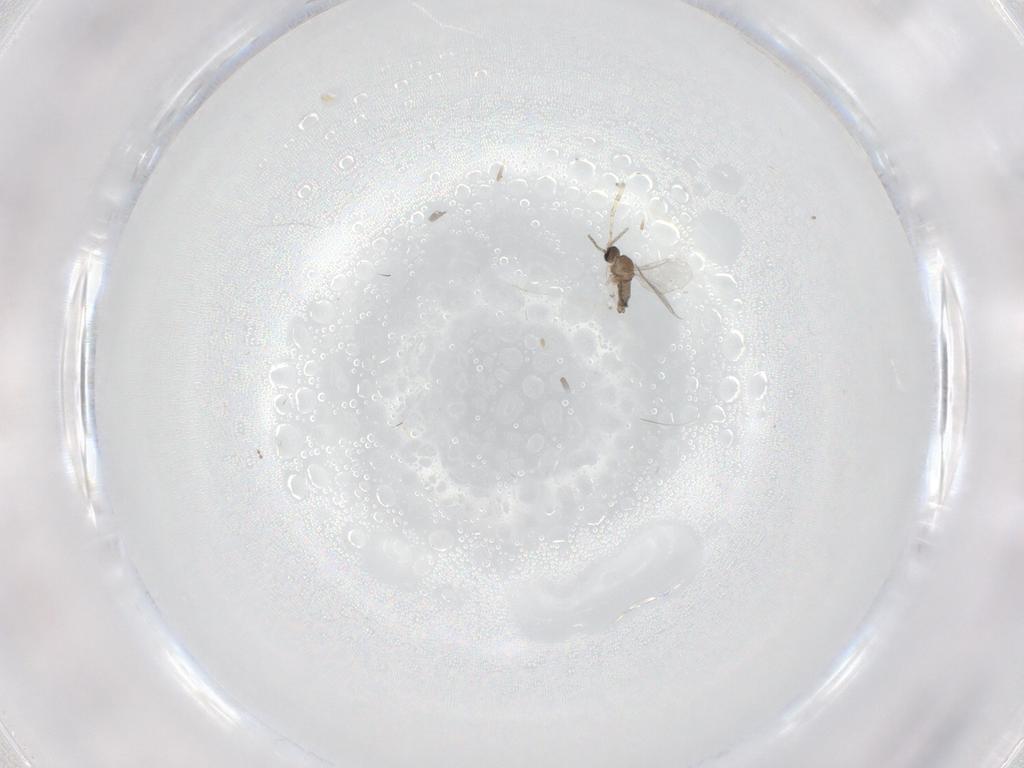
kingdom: Animalia
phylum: Arthropoda
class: Insecta
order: Diptera
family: Cecidomyiidae
